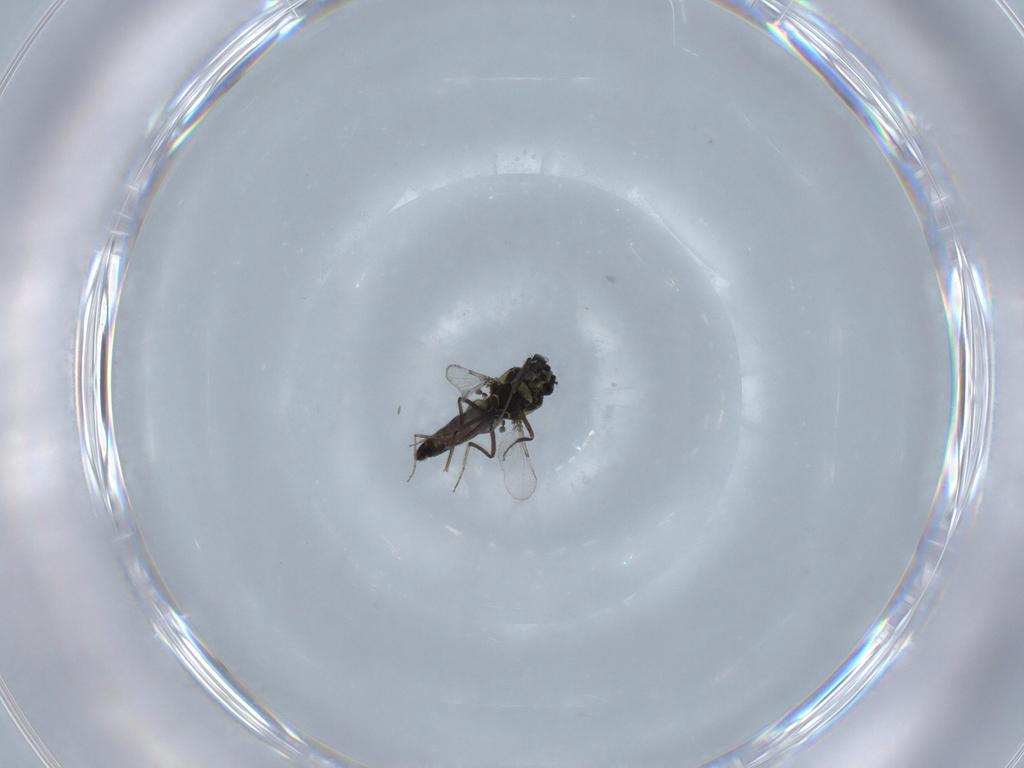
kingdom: Animalia
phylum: Arthropoda
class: Insecta
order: Diptera
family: Ceratopogonidae
